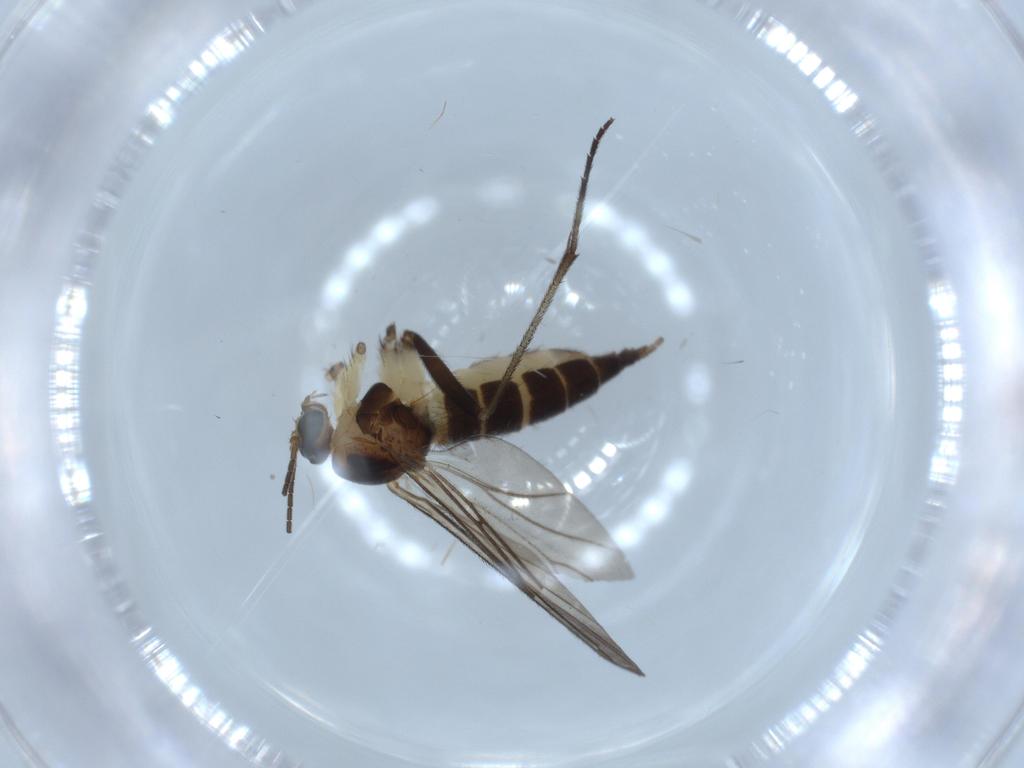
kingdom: Animalia
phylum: Arthropoda
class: Insecta
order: Diptera
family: Sciaridae
